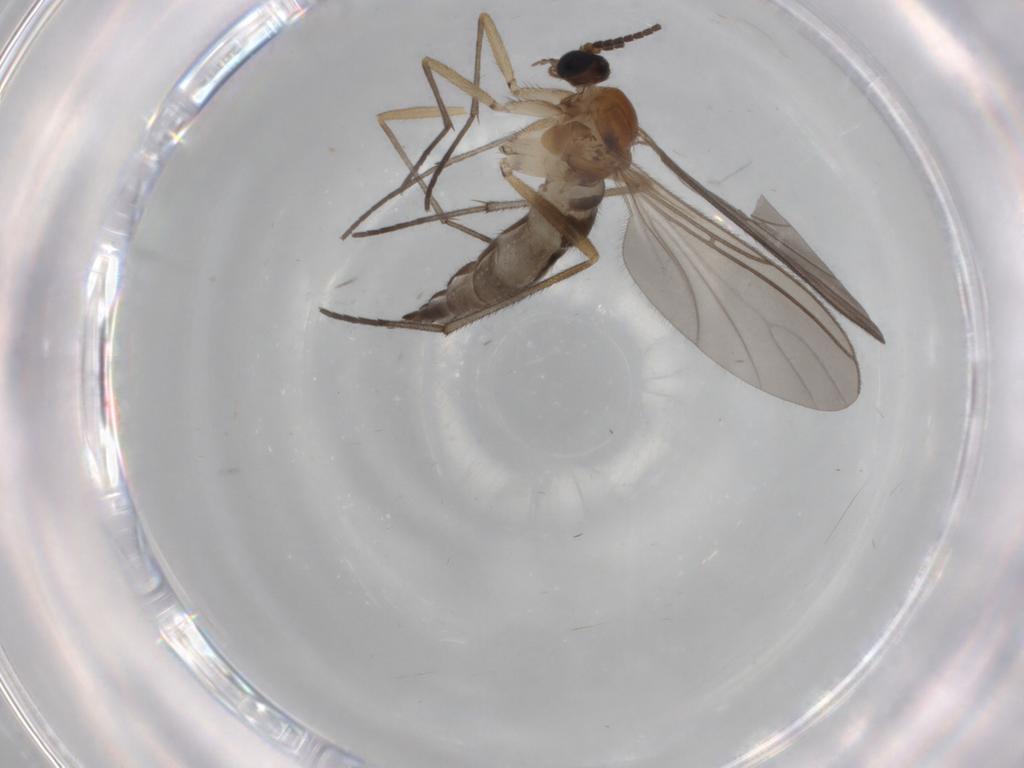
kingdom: Animalia
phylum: Arthropoda
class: Insecta
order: Diptera
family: Sciaridae
